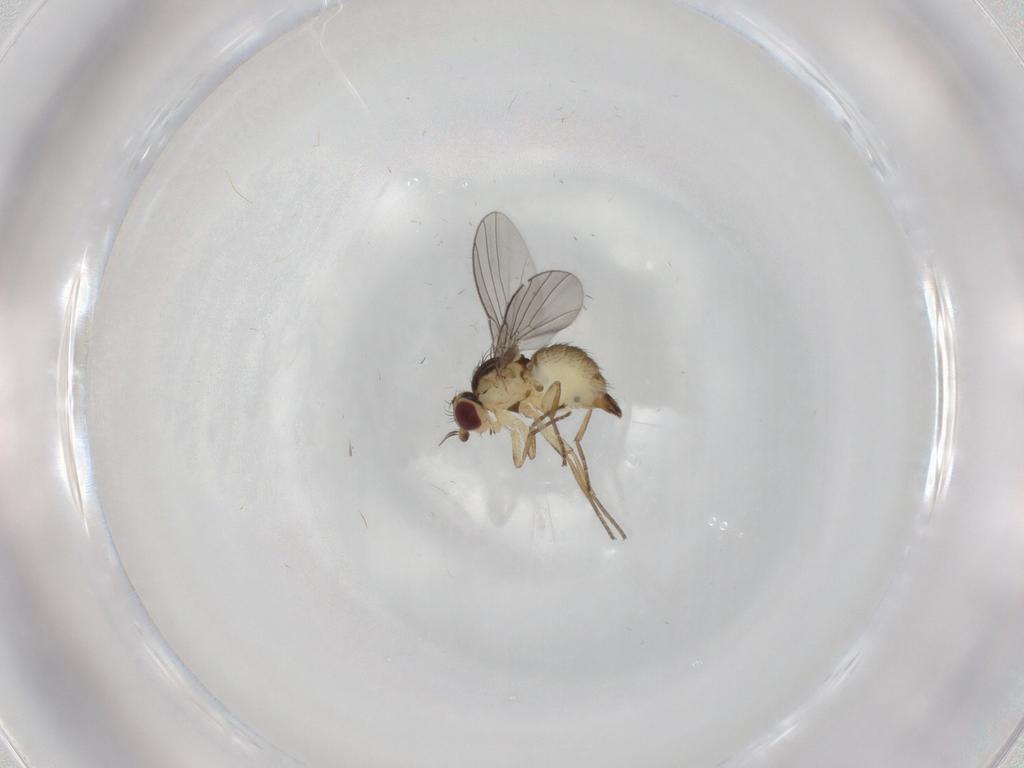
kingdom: Animalia
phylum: Arthropoda
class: Insecta
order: Diptera
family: Agromyzidae
